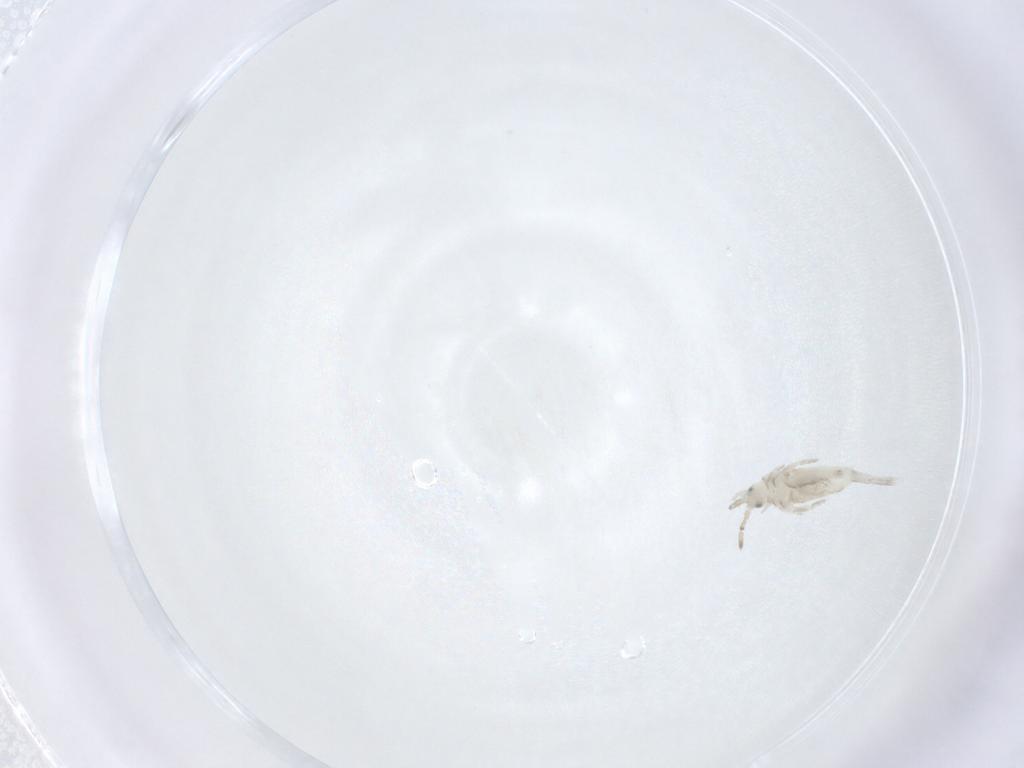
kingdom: Animalia
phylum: Arthropoda
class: Collembola
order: Entomobryomorpha
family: Entomobryidae
